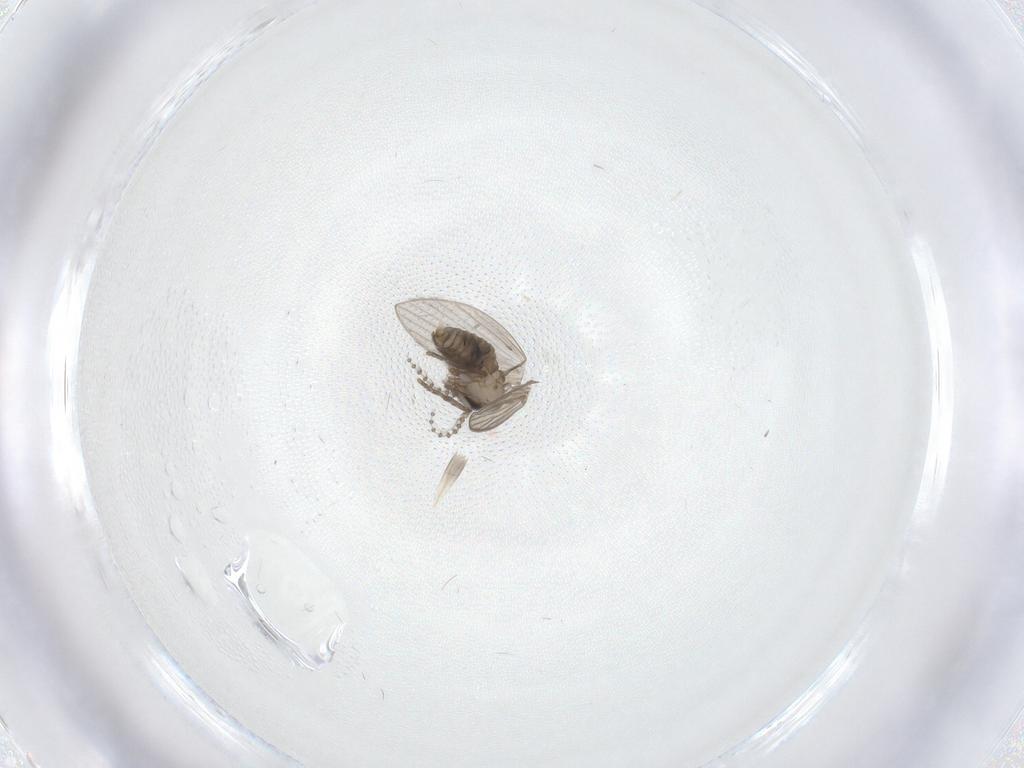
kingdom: Animalia
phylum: Arthropoda
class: Insecta
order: Diptera
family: Psychodidae
